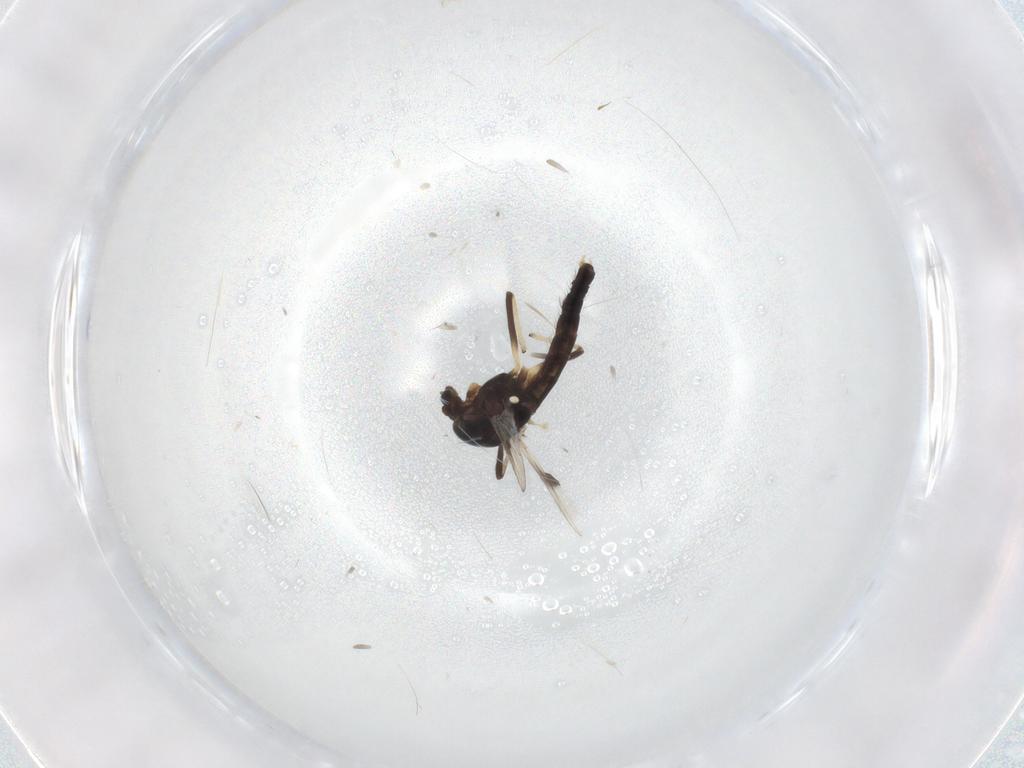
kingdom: Animalia
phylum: Arthropoda
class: Insecta
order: Diptera
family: Chironomidae
